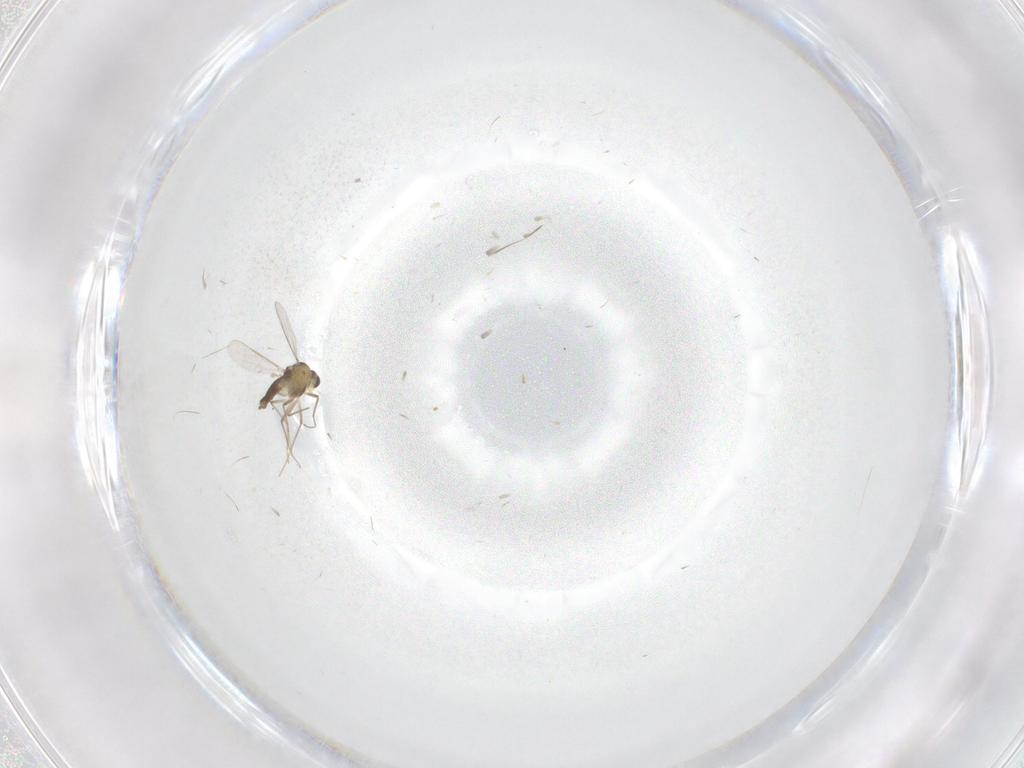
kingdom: Animalia
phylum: Arthropoda
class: Insecta
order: Diptera
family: Chironomidae
